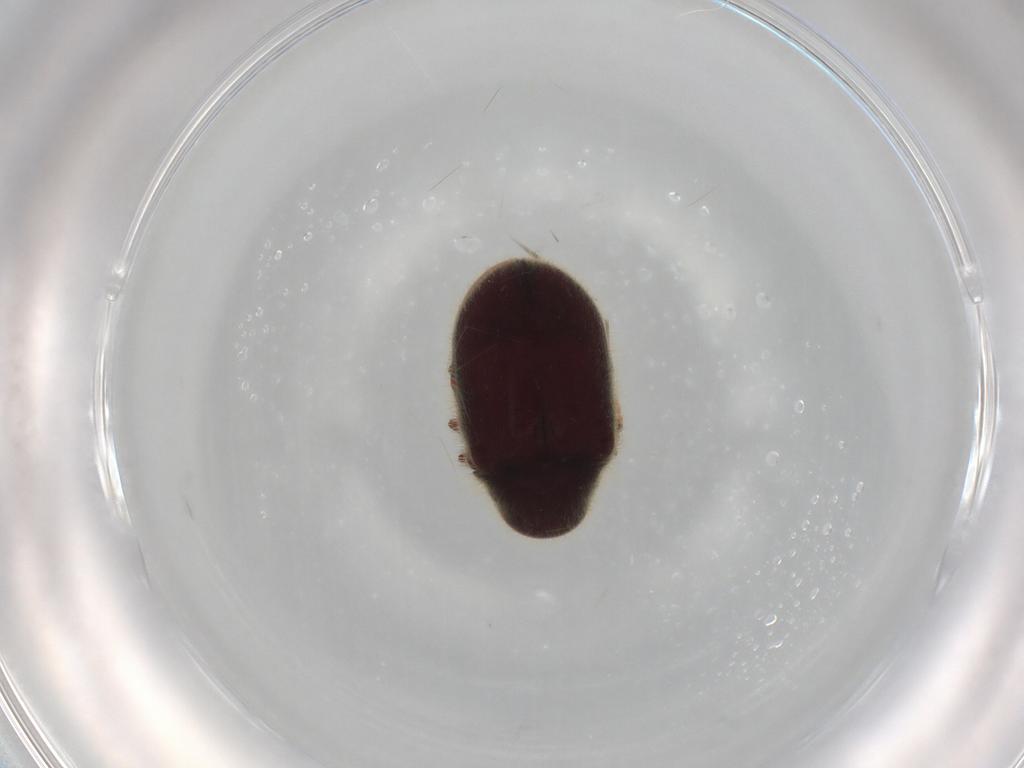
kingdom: Animalia
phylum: Arthropoda
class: Insecta
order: Coleoptera
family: Ptinidae
